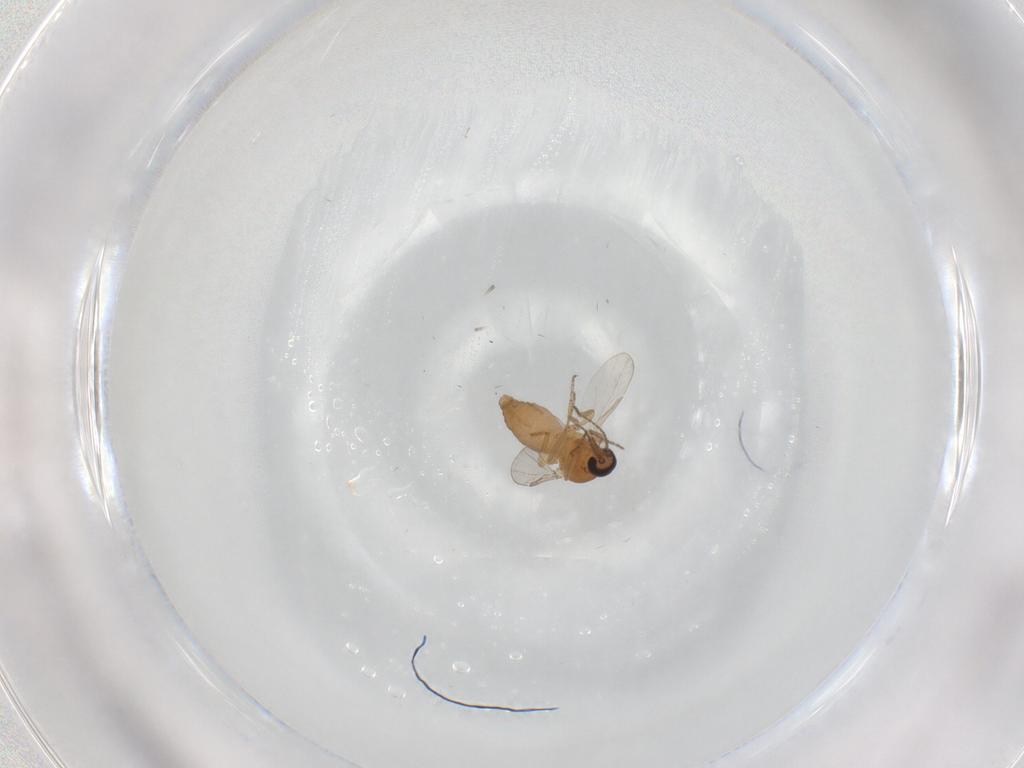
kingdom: Animalia
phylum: Arthropoda
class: Insecta
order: Diptera
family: Ceratopogonidae
